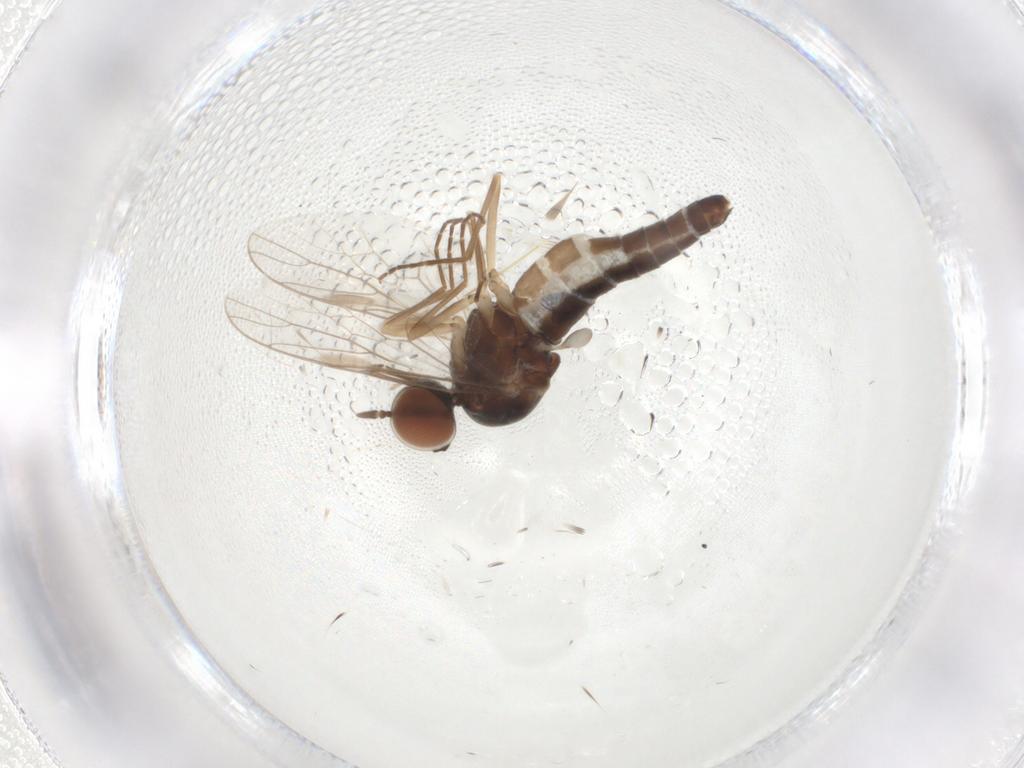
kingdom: Animalia
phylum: Arthropoda
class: Insecta
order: Diptera
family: Scenopinidae
